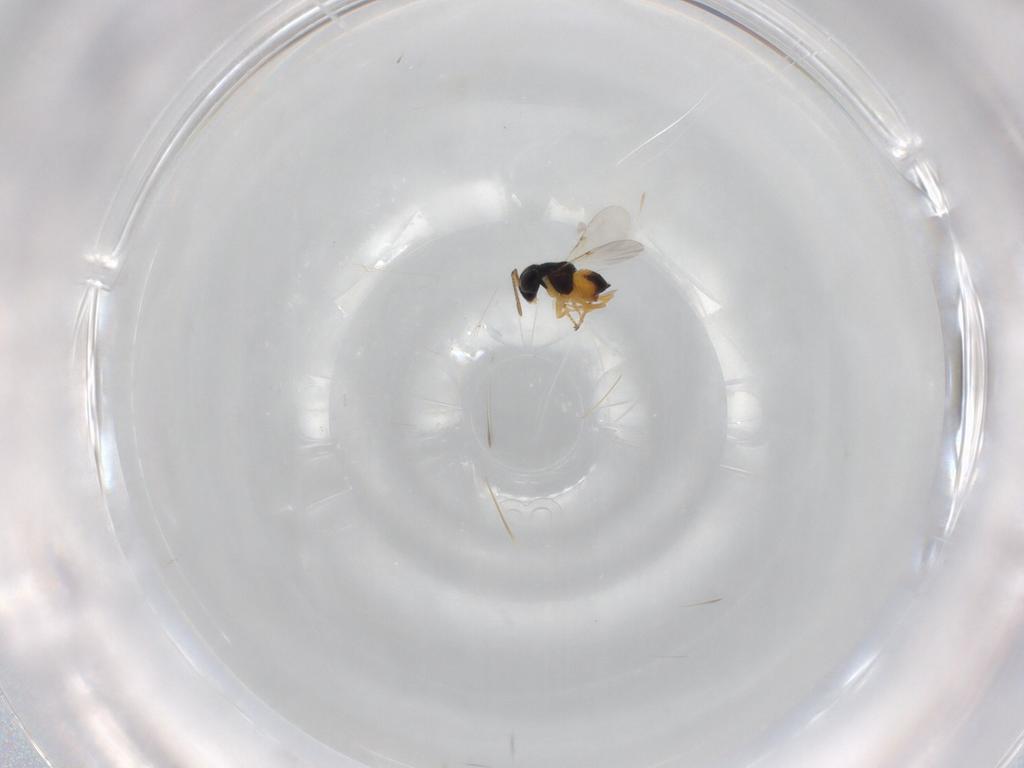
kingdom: Animalia
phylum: Arthropoda
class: Insecta
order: Hymenoptera
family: Encyrtidae
